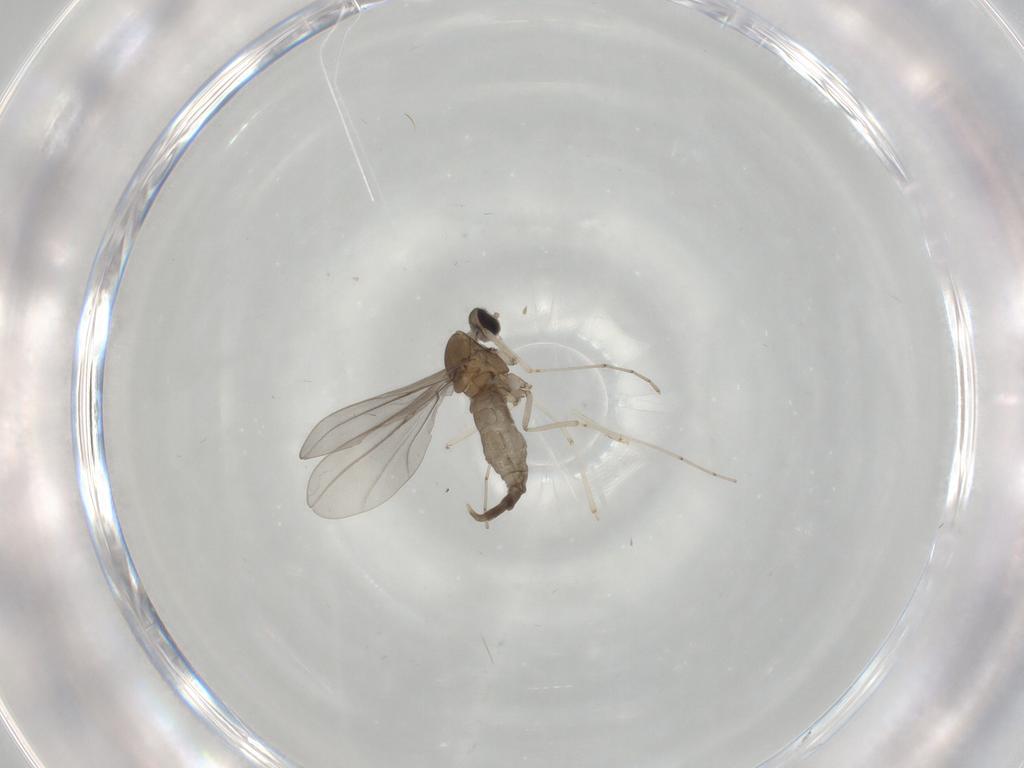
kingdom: Animalia
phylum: Arthropoda
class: Insecta
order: Diptera
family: Cecidomyiidae
